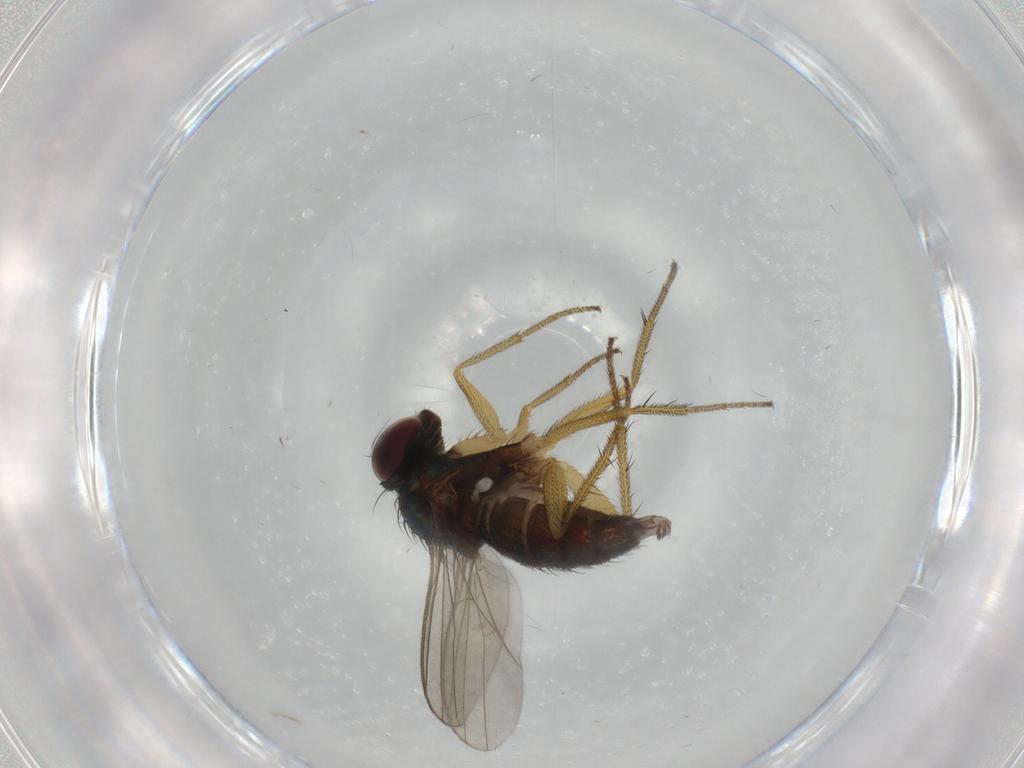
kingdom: Animalia
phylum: Arthropoda
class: Insecta
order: Diptera
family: Dolichopodidae
